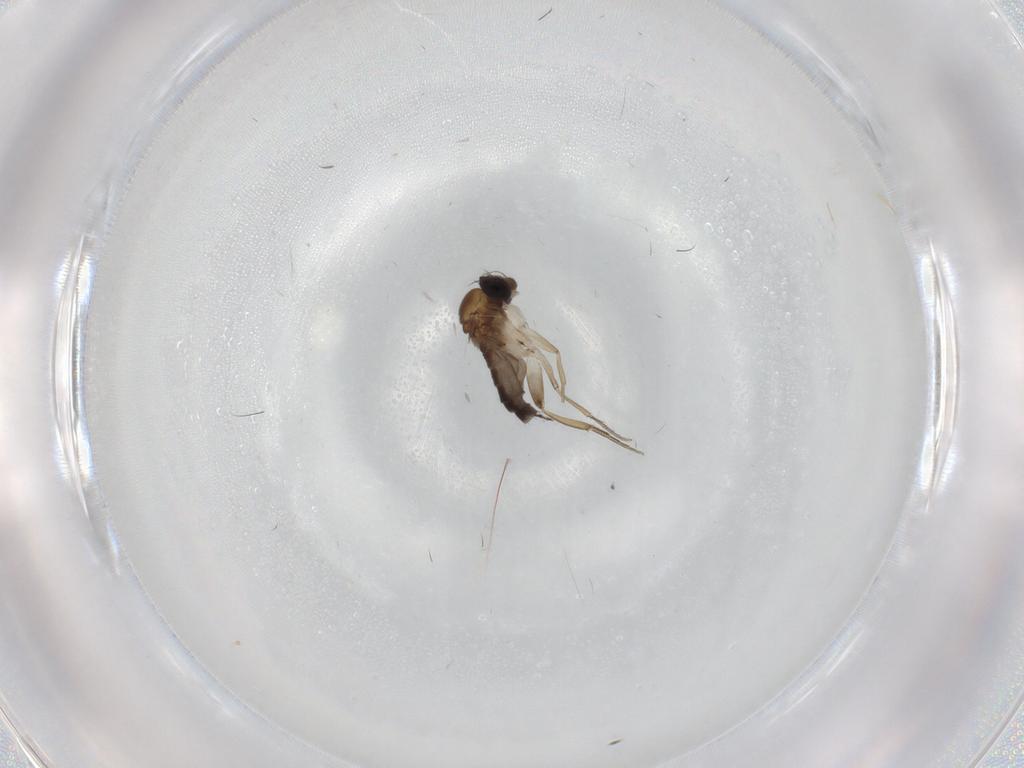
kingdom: Animalia
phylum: Arthropoda
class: Insecta
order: Diptera
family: Phoridae
